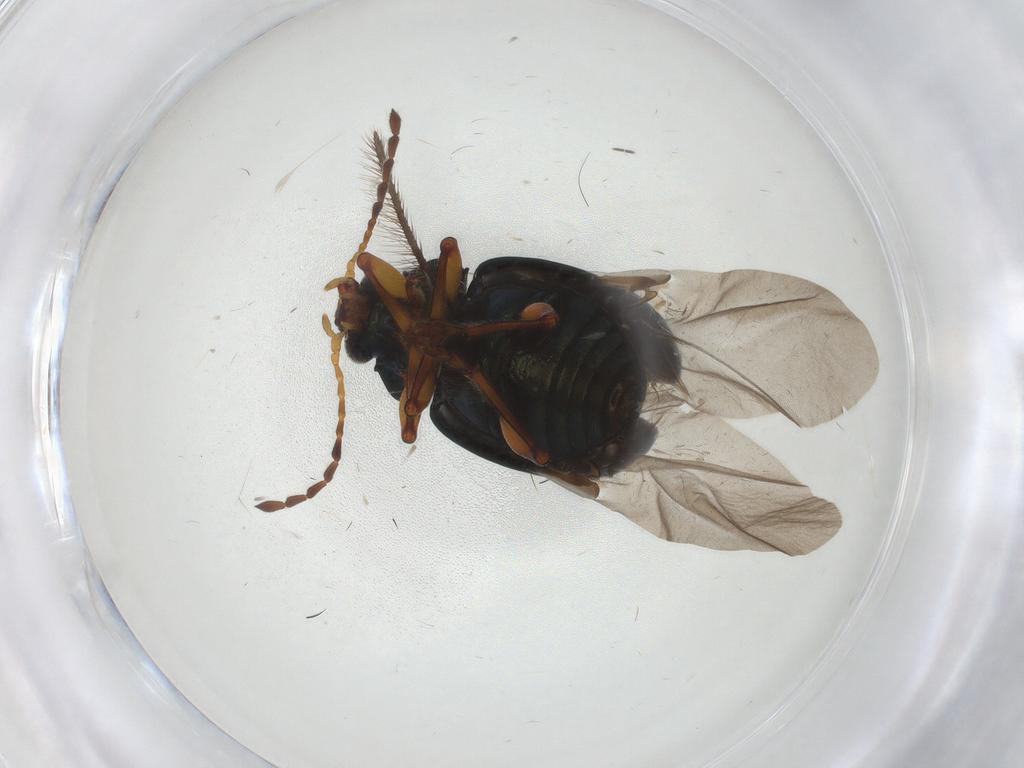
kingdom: Animalia
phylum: Arthropoda
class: Insecta
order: Coleoptera
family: Chrysomelidae
